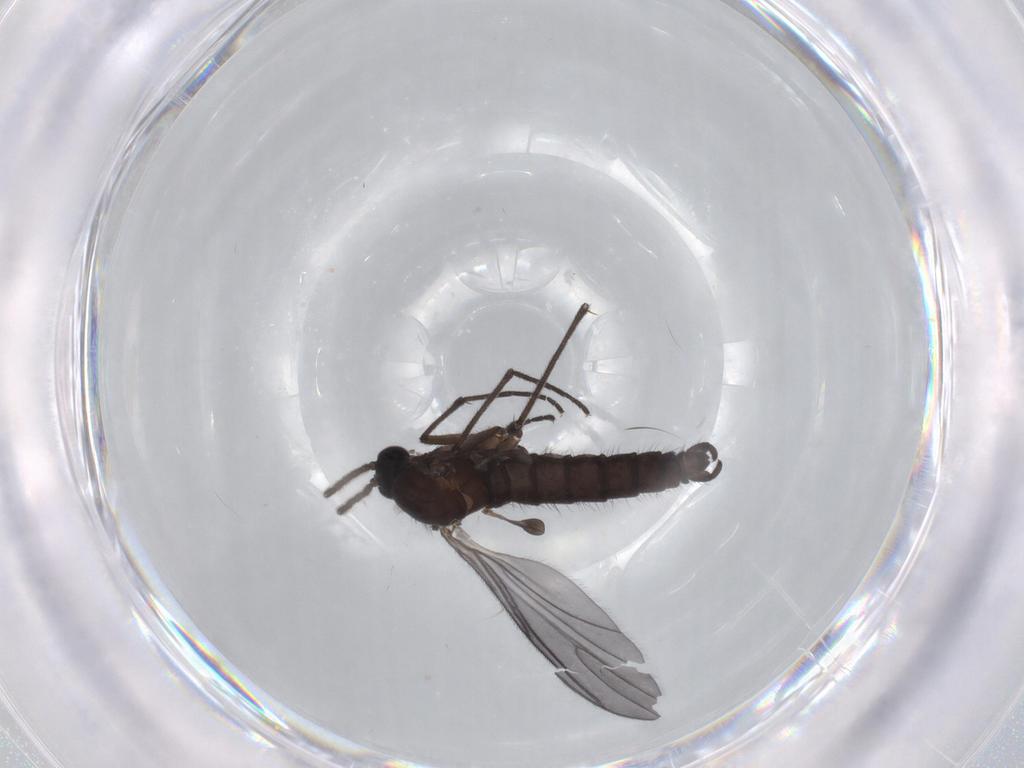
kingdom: Animalia
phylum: Arthropoda
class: Insecta
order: Diptera
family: Sciaridae
